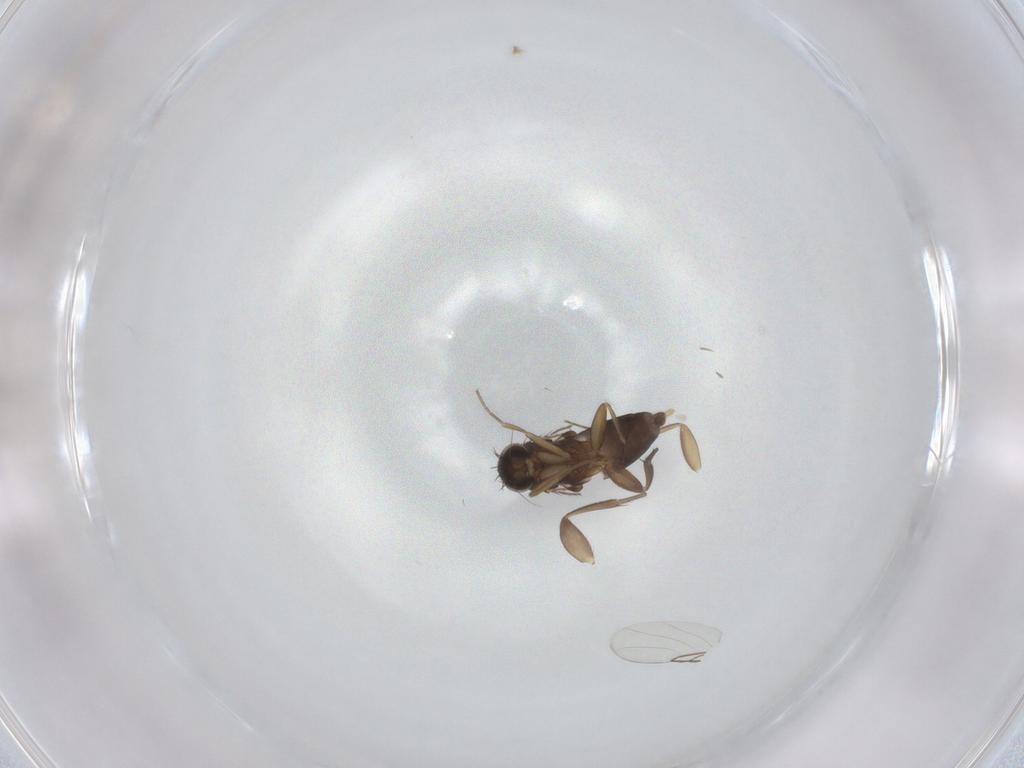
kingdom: Animalia
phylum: Arthropoda
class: Insecta
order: Diptera
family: Phoridae
